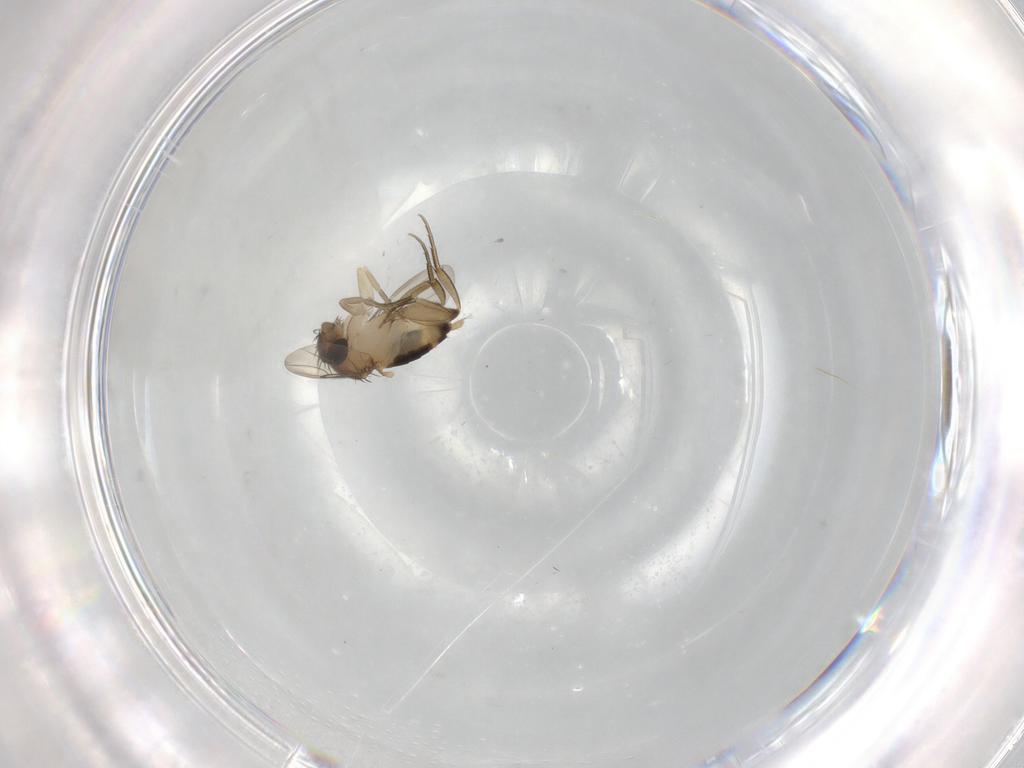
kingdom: Animalia
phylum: Arthropoda
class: Insecta
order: Diptera
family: Phoridae
